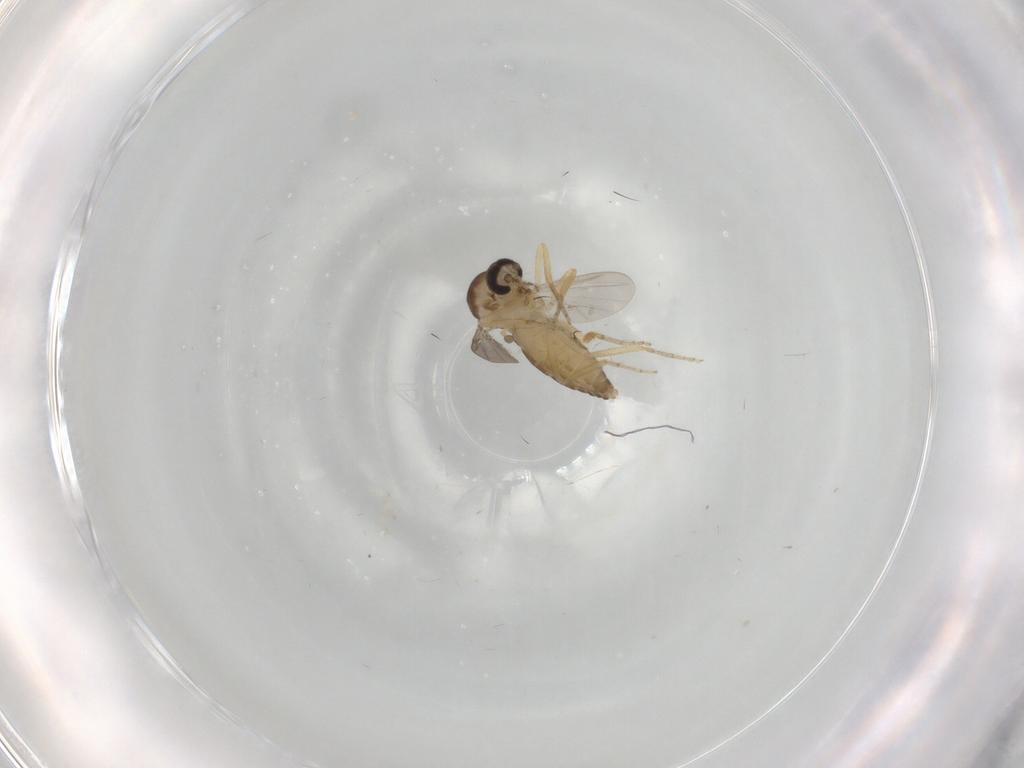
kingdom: Animalia
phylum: Arthropoda
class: Insecta
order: Diptera
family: Ceratopogonidae
